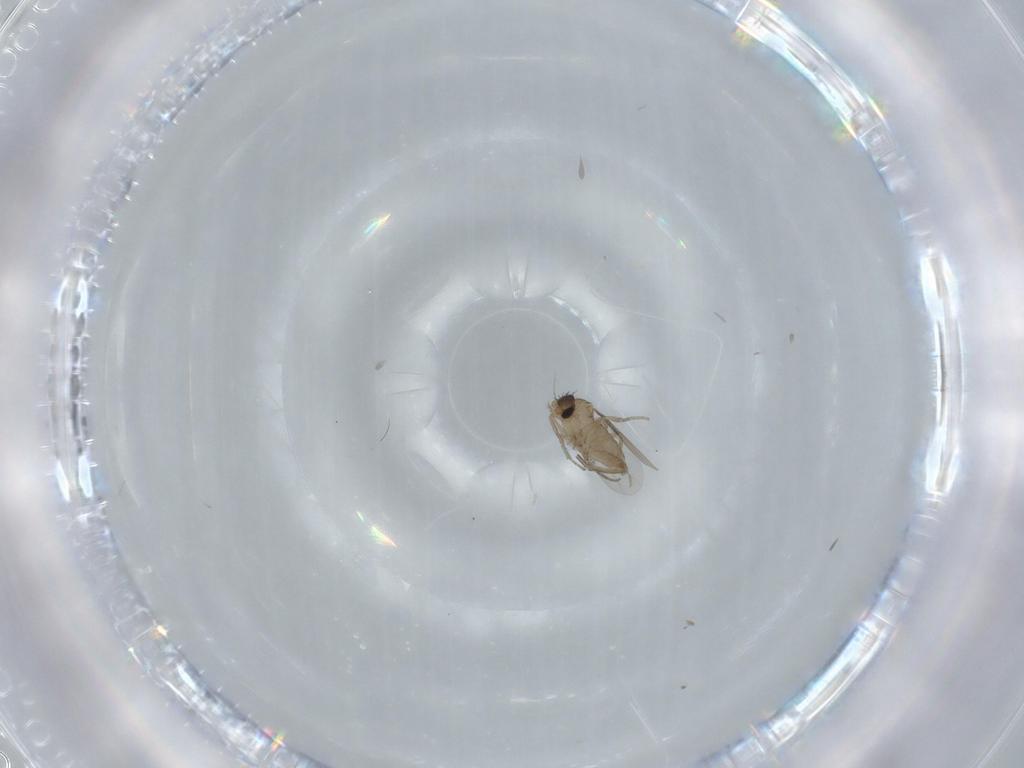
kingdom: Animalia
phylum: Arthropoda
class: Insecta
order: Diptera
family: Phoridae
